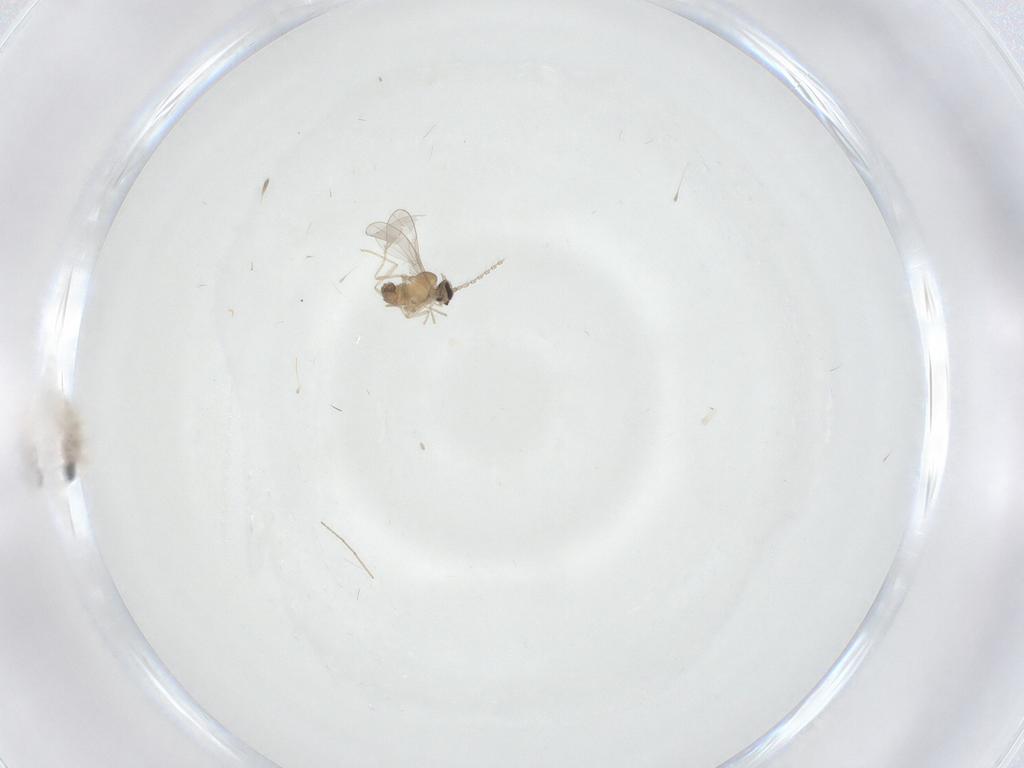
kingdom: Animalia
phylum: Arthropoda
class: Insecta
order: Diptera
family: Cecidomyiidae
